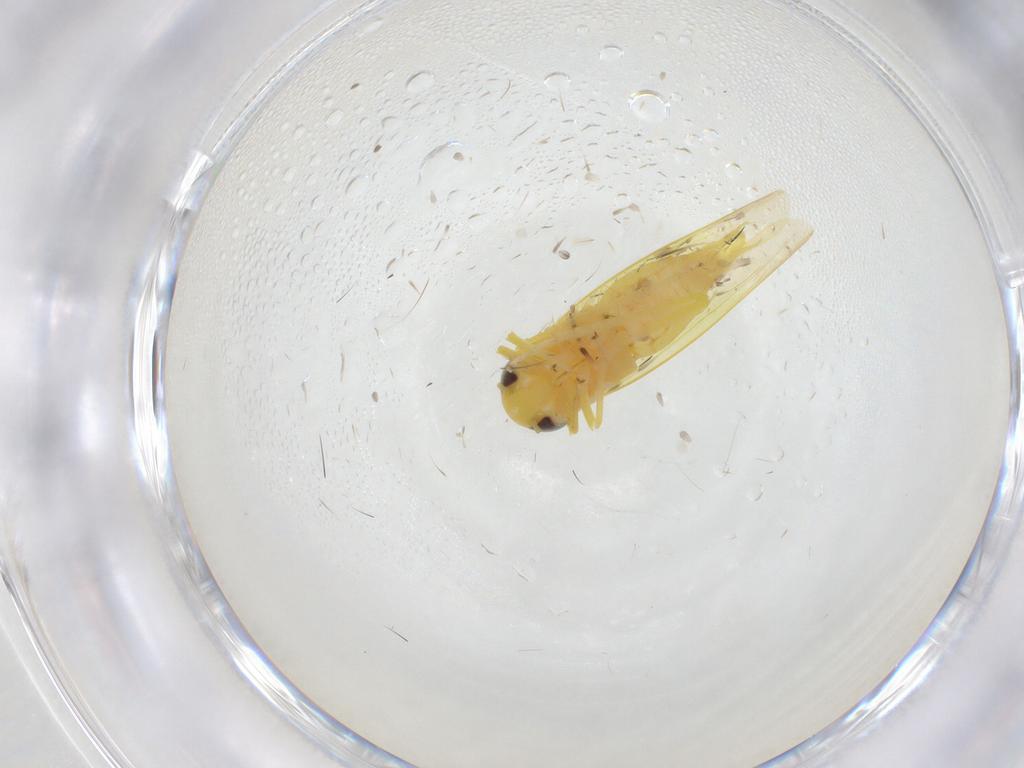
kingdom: Animalia
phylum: Arthropoda
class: Insecta
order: Hemiptera
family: Cicadellidae
